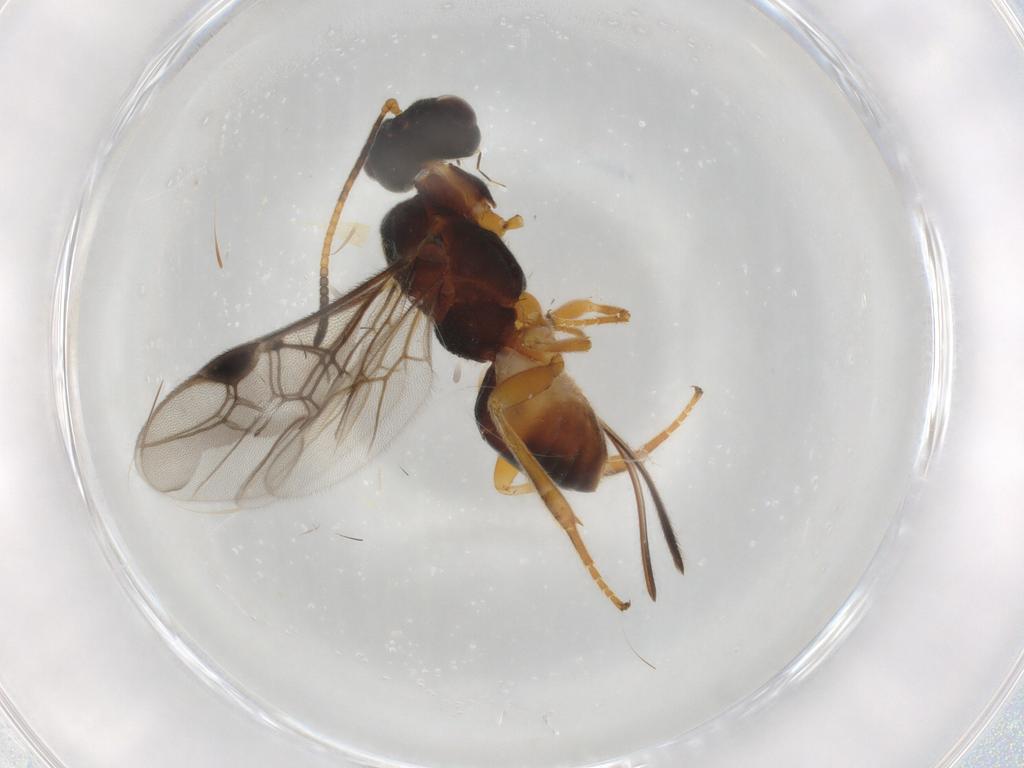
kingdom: Animalia
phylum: Arthropoda
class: Insecta
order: Hymenoptera
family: Braconidae
